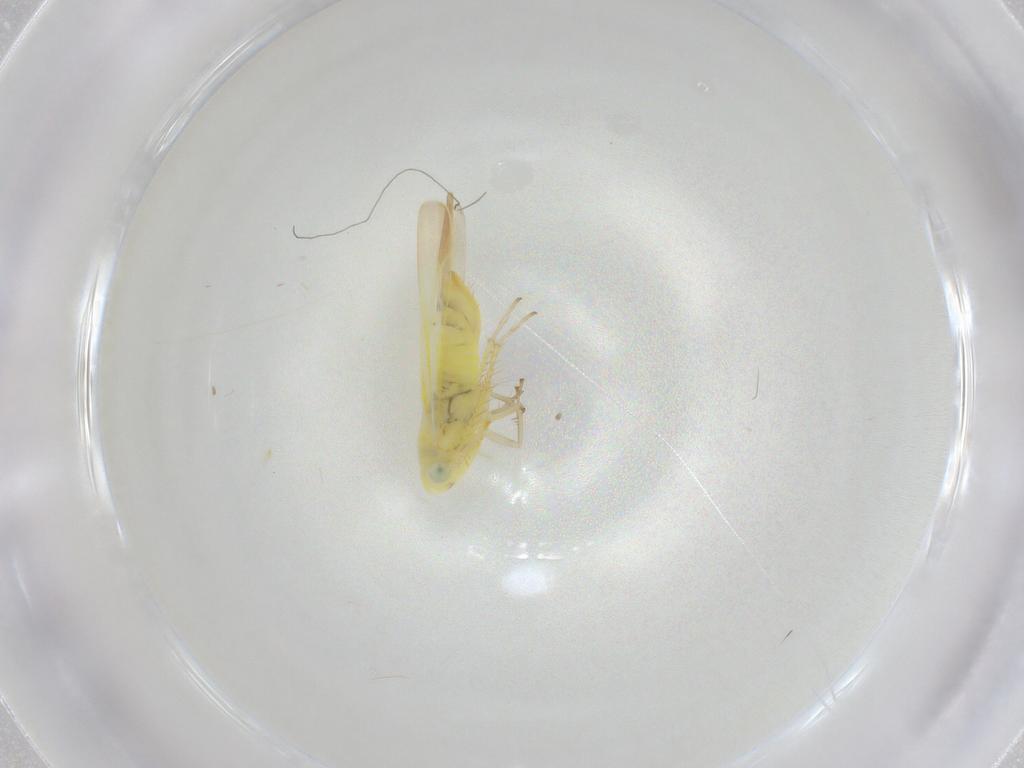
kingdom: Animalia
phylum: Arthropoda
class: Insecta
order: Hemiptera
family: Cicadellidae
